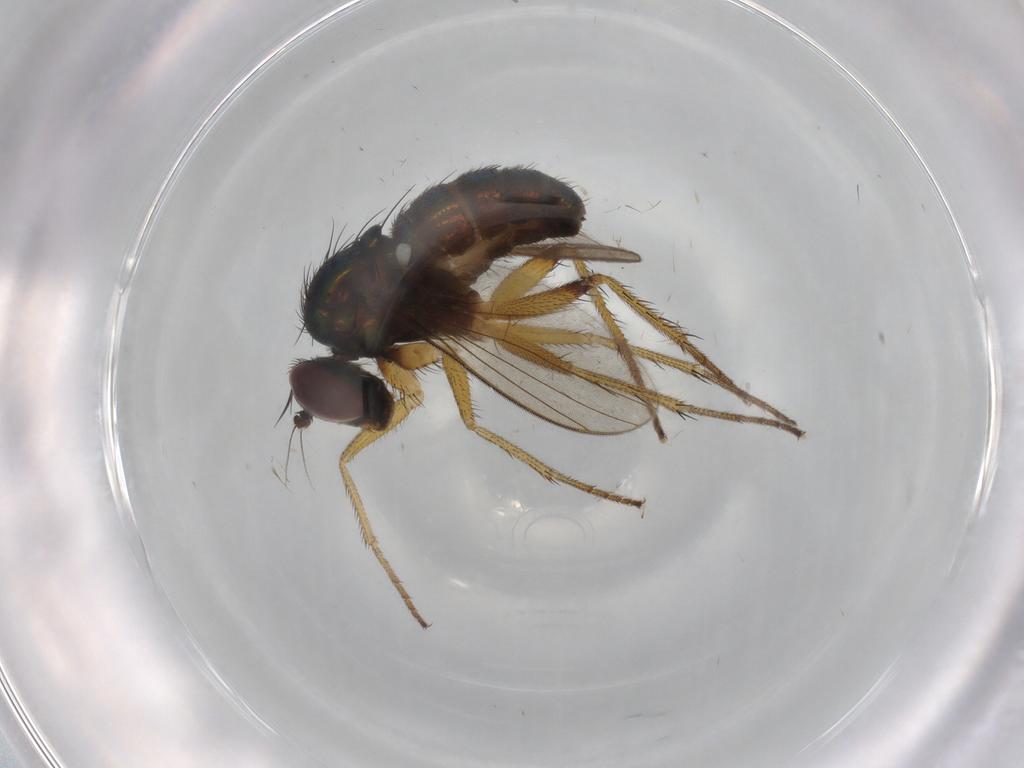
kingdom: Animalia
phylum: Arthropoda
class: Insecta
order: Diptera
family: Dolichopodidae
